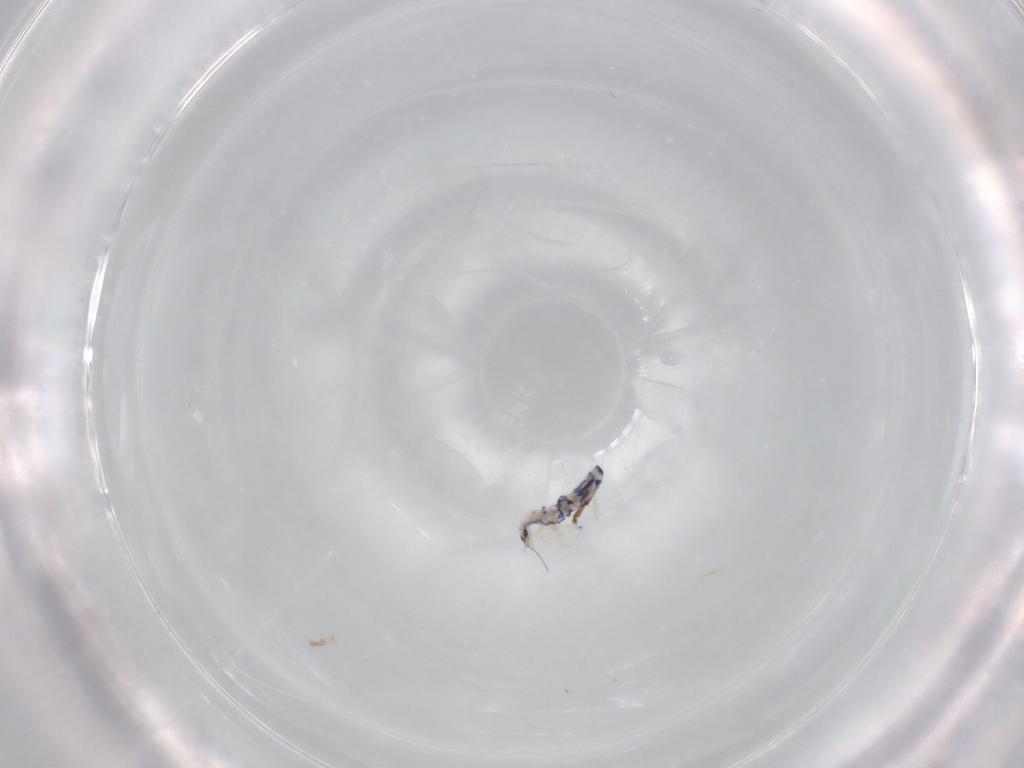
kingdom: Animalia
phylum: Arthropoda
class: Collembola
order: Entomobryomorpha
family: Entomobryidae
